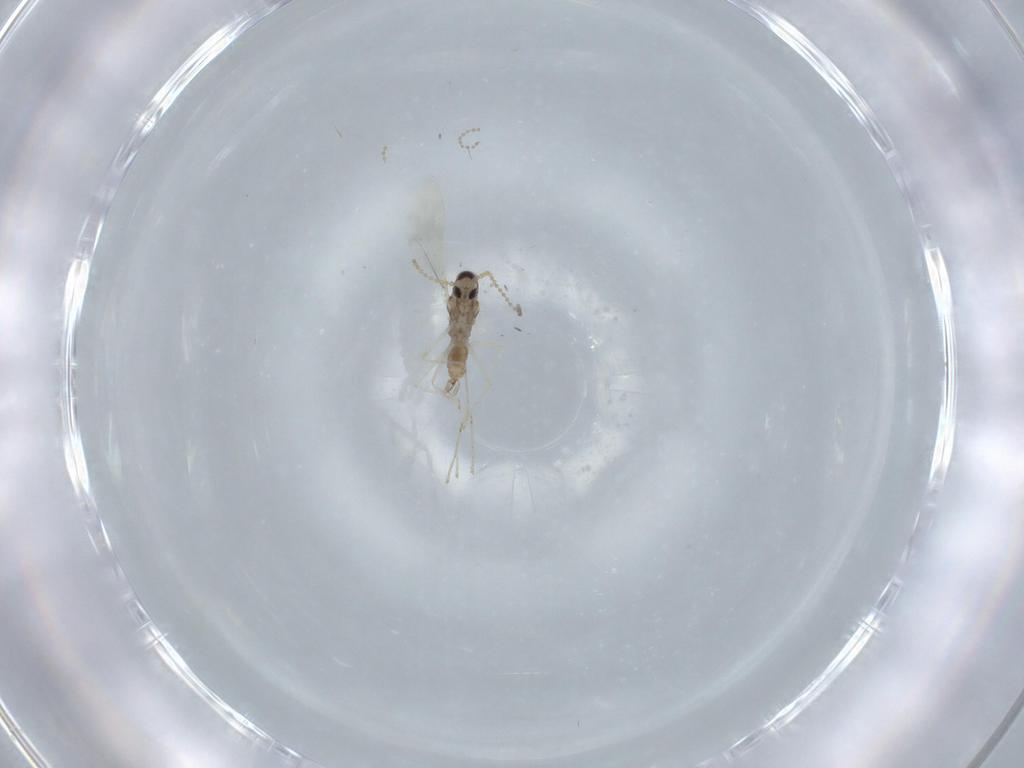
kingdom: Animalia
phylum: Arthropoda
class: Insecta
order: Diptera
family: Cecidomyiidae
